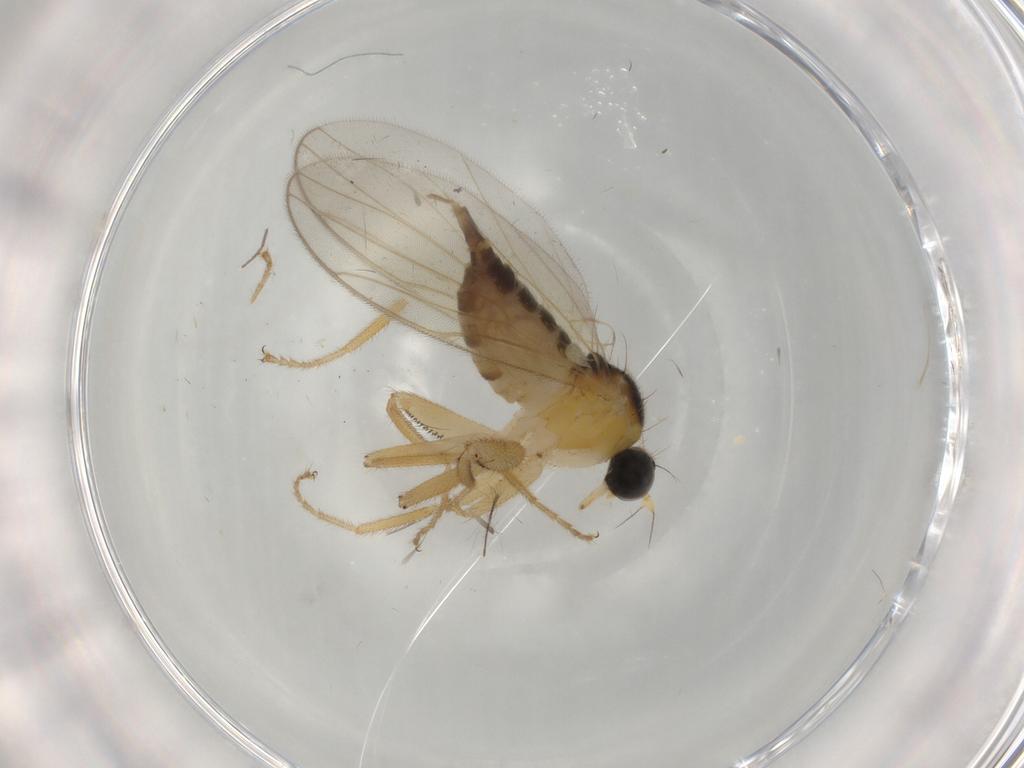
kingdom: Animalia
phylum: Arthropoda
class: Insecta
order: Diptera
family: Hybotidae
